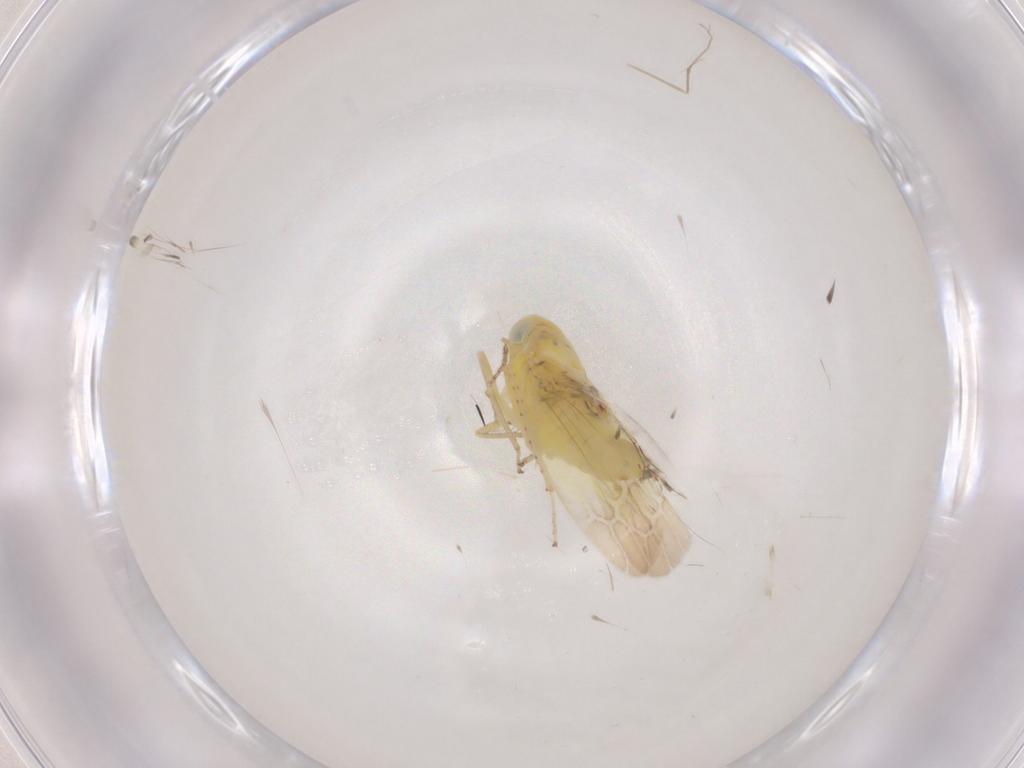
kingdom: Animalia
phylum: Arthropoda
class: Insecta
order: Hemiptera
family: Cicadellidae
